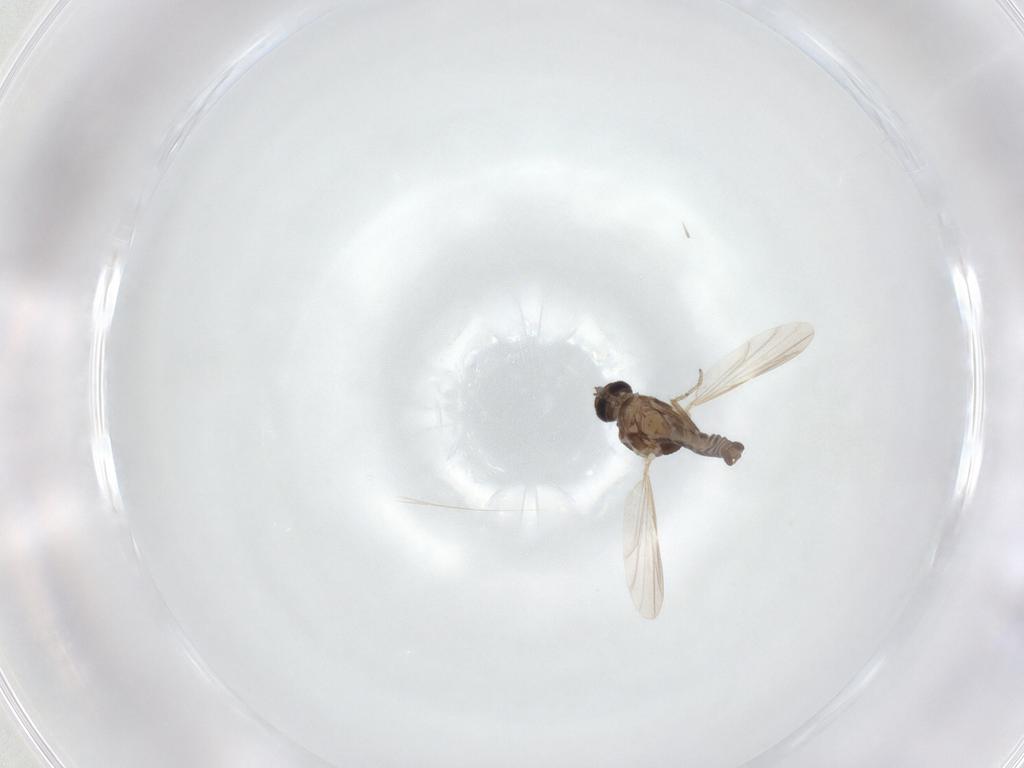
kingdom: Animalia
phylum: Arthropoda
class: Insecta
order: Diptera
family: Ceratopogonidae
